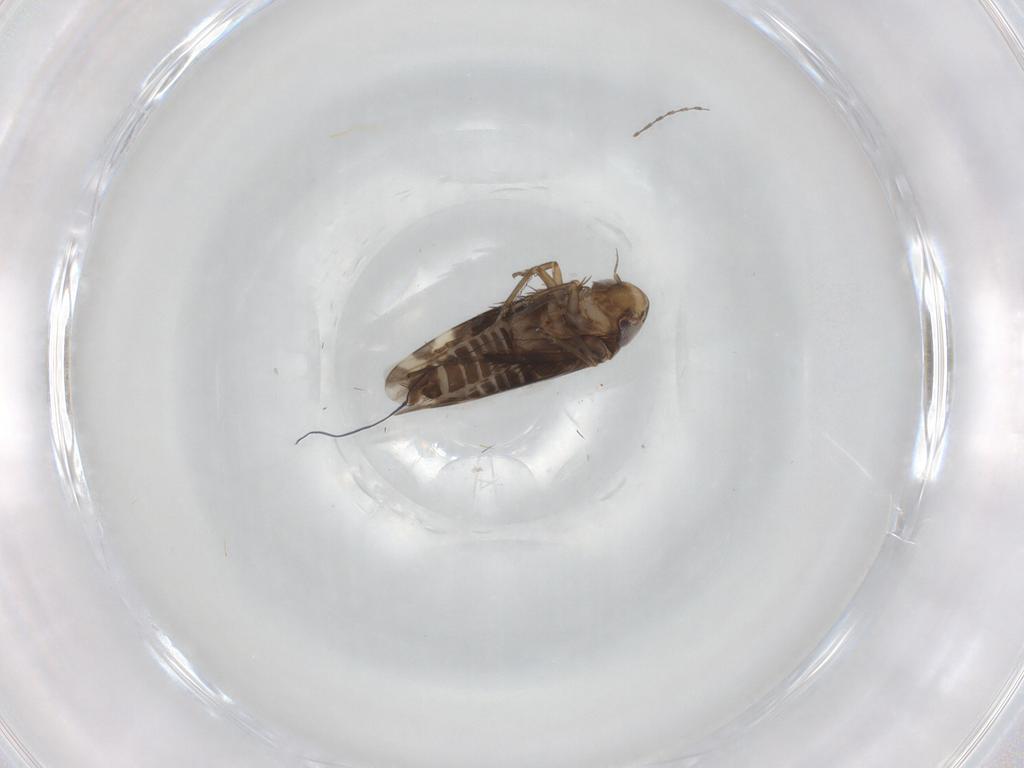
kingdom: Animalia
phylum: Arthropoda
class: Insecta
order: Hemiptera
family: Cicadellidae
